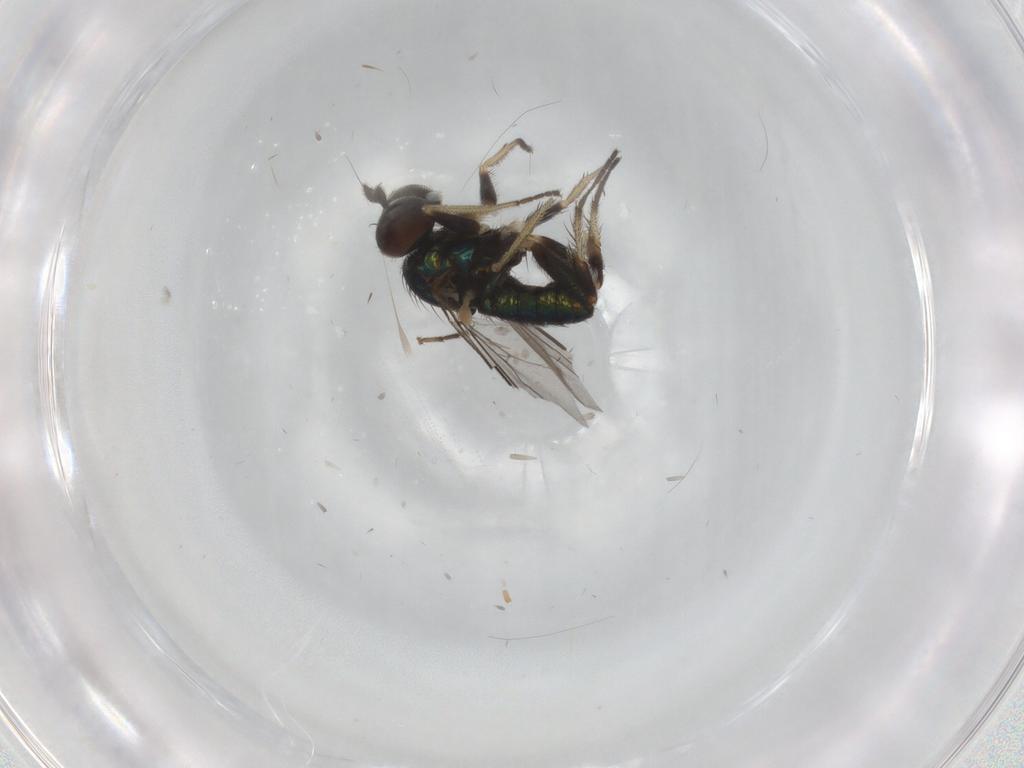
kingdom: Animalia
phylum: Arthropoda
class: Insecta
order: Diptera
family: Dolichopodidae
